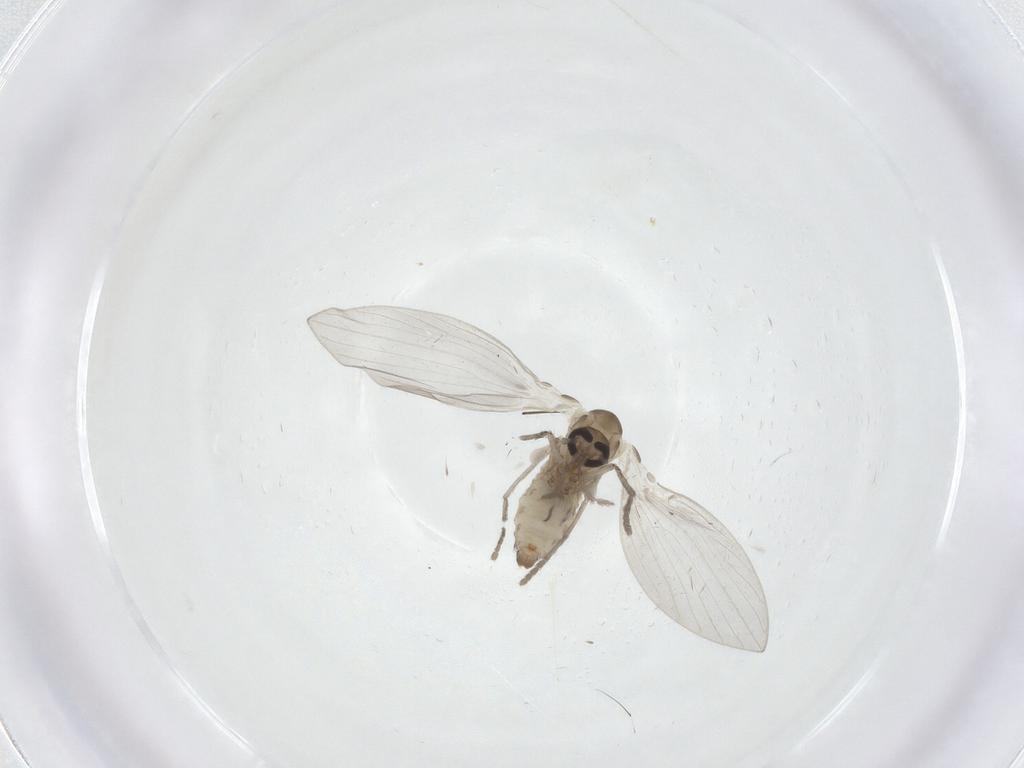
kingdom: Animalia
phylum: Arthropoda
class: Insecta
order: Diptera
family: Psychodidae
